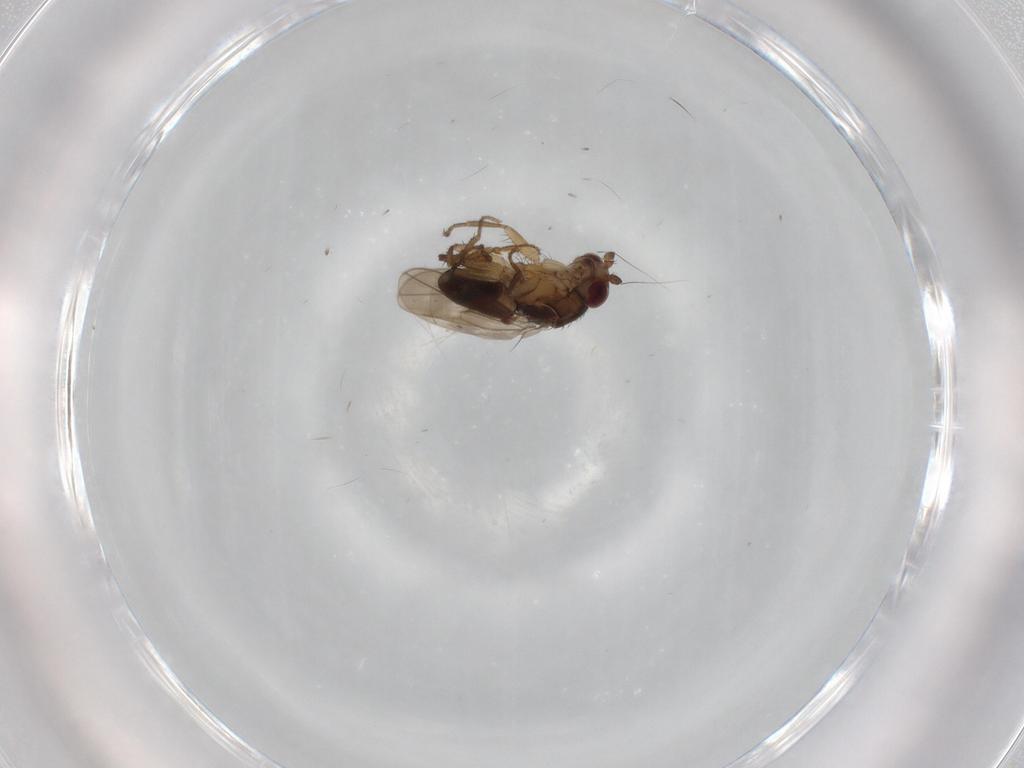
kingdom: Animalia
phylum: Arthropoda
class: Insecta
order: Diptera
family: Sphaeroceridae
